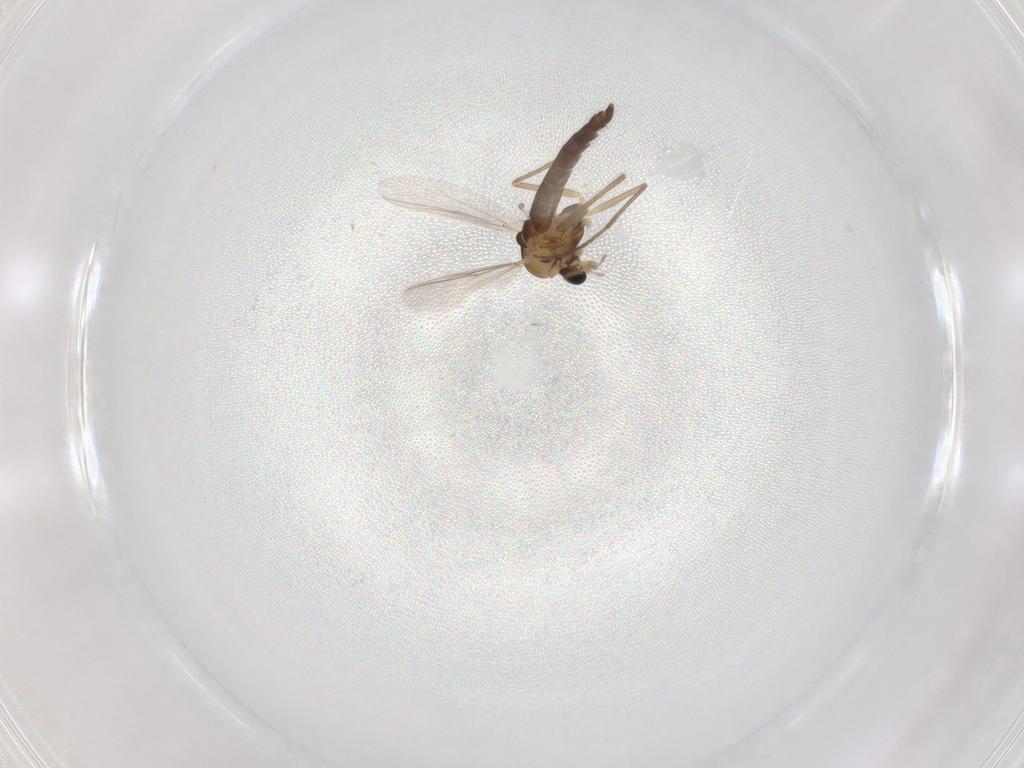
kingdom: Animalia
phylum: Arthropoda
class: Insecta
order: Diptera
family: Chironomidae
